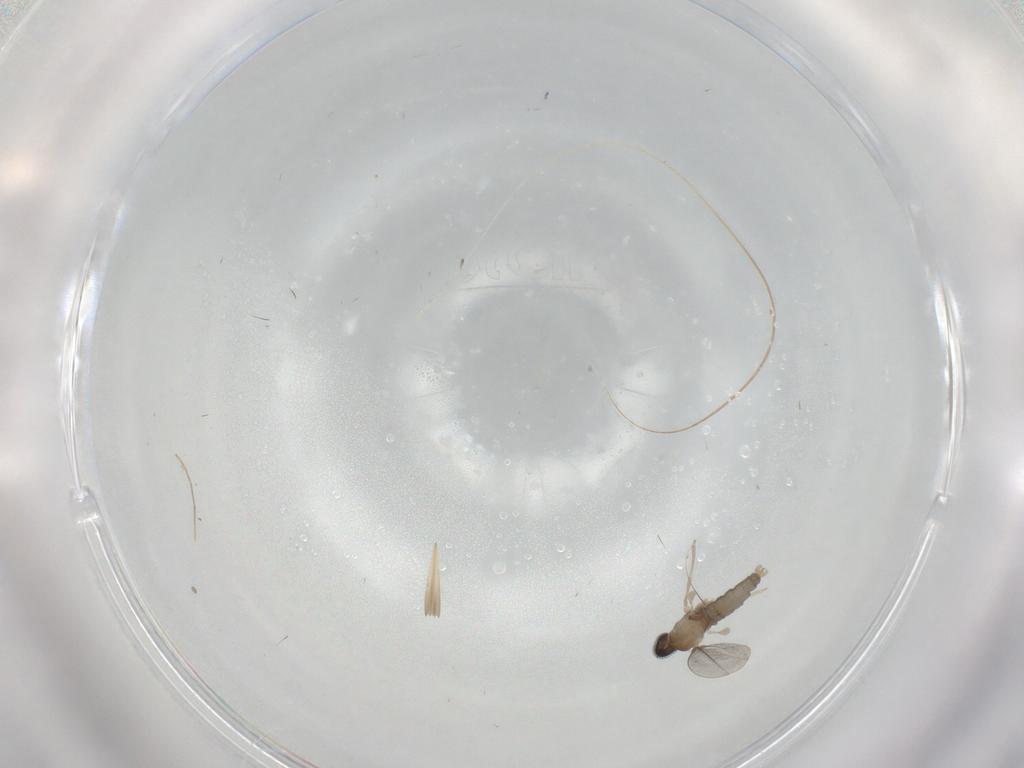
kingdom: Animalia
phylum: Arthropoda
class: Insecta
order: Diptera
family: Cecidomyiidae
